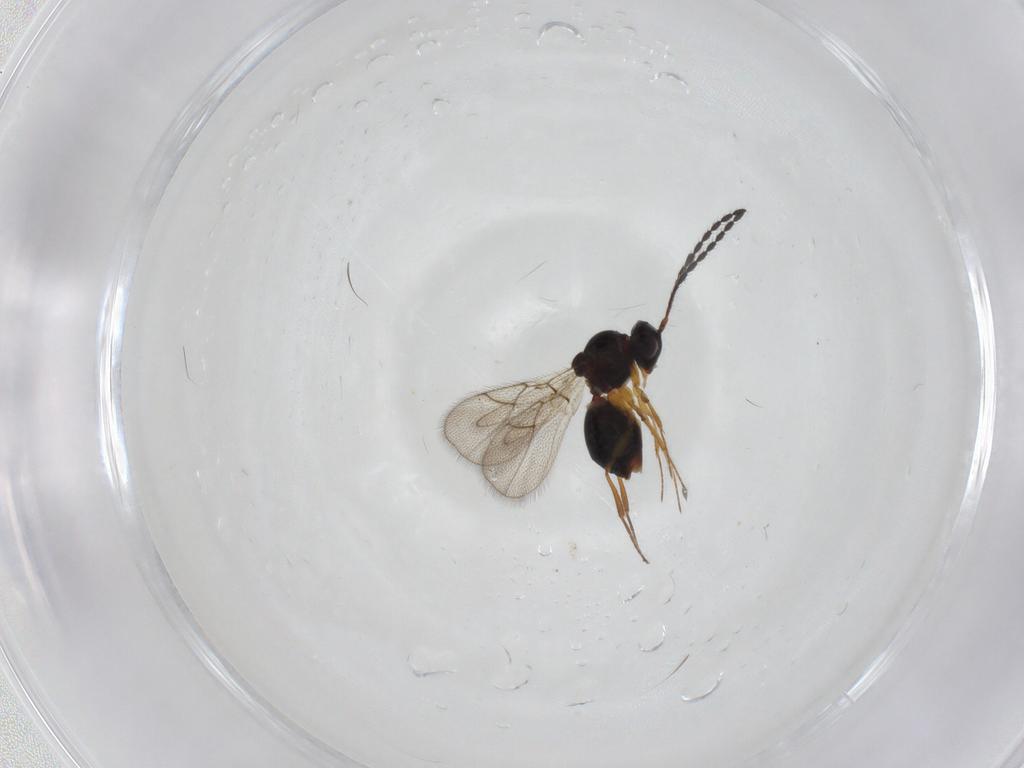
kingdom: Animalia
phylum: Arthropoda
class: Insecta
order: Hymenoptera
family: Figitidae
